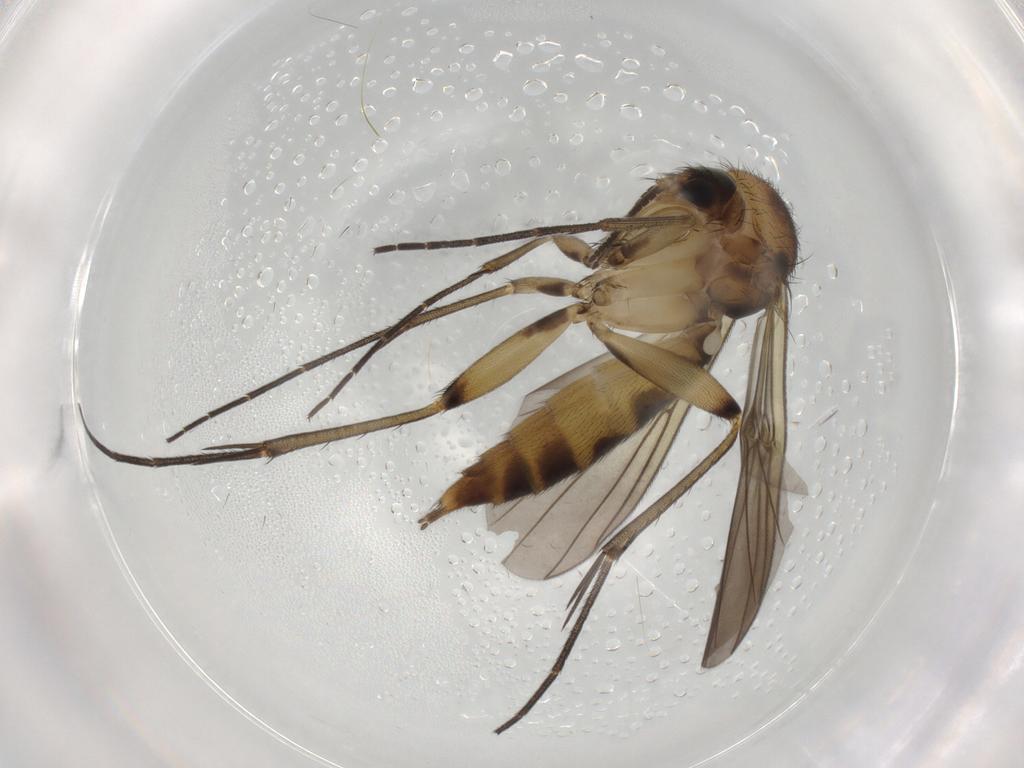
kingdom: Animalia
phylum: Arthropoda
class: Insecta
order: Diptera
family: Mycetophilidae
